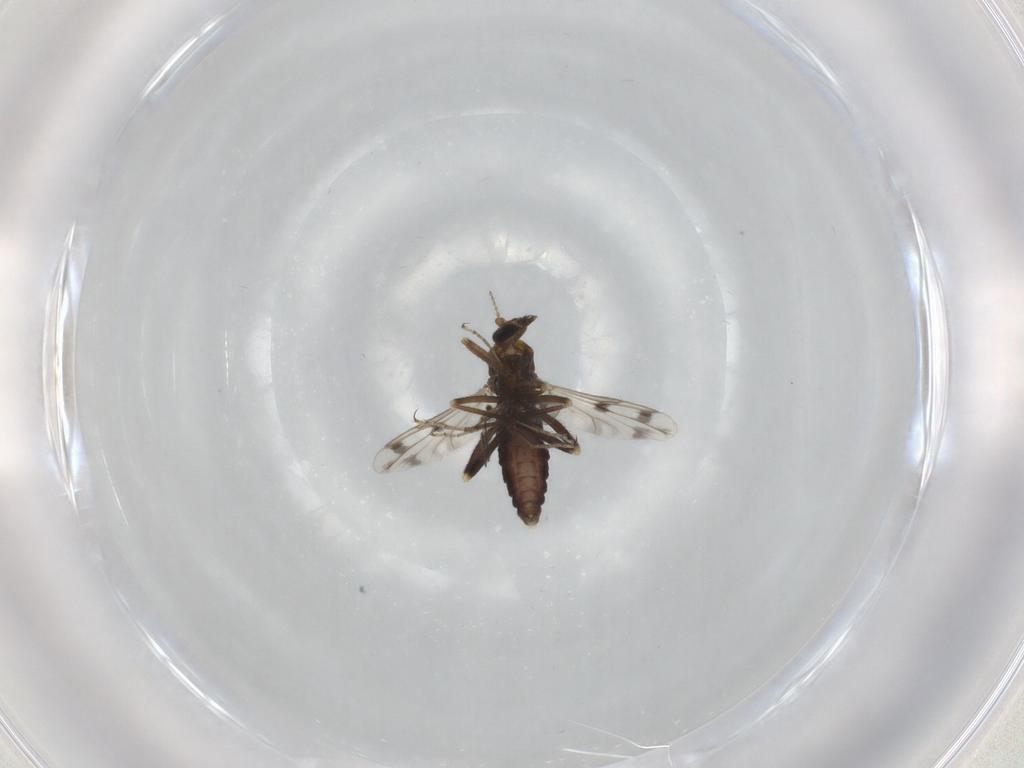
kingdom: Animalia
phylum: Arthropoda
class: Insecta
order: Diptera
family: Ceratopogonidae
